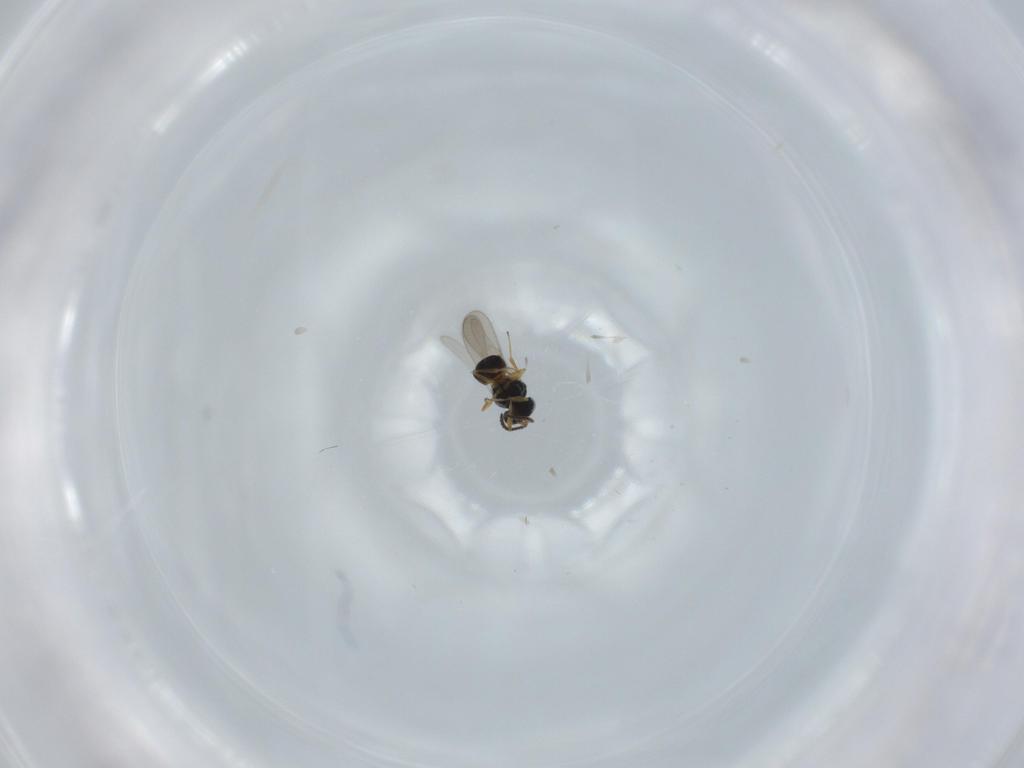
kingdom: Animalia
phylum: Arthropoda
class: Insecta
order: Hymenoptera
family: Scelionidae
